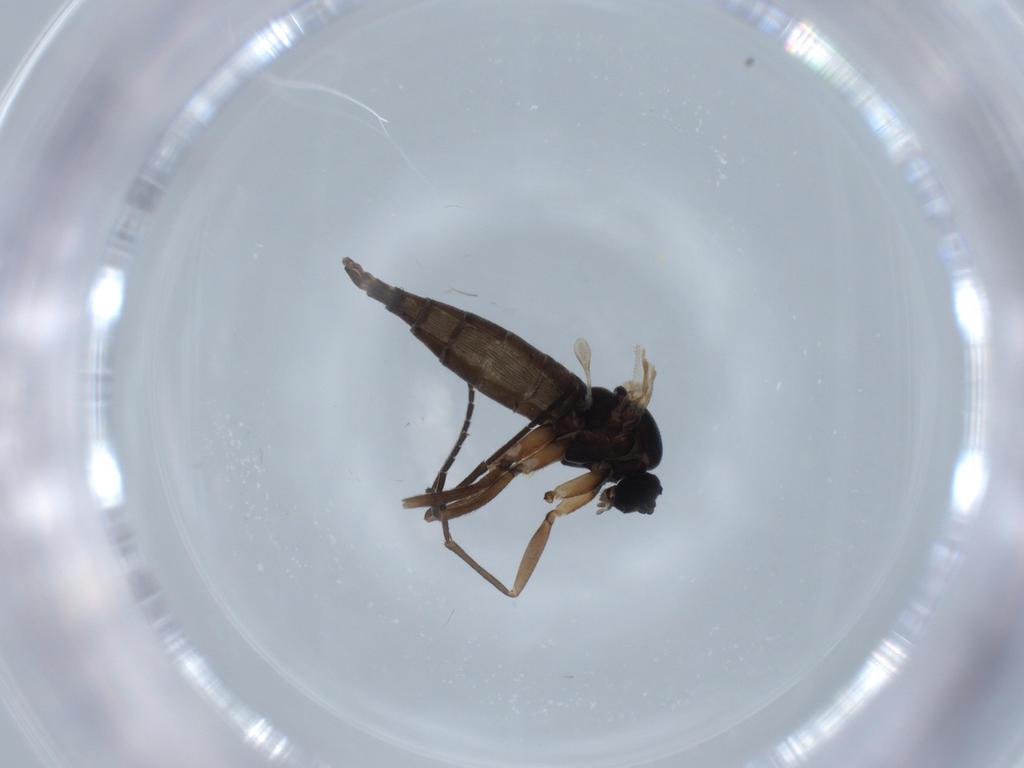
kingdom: Animalia
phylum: Arthropoda
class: Insecta
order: Diptera
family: Sciaridae
